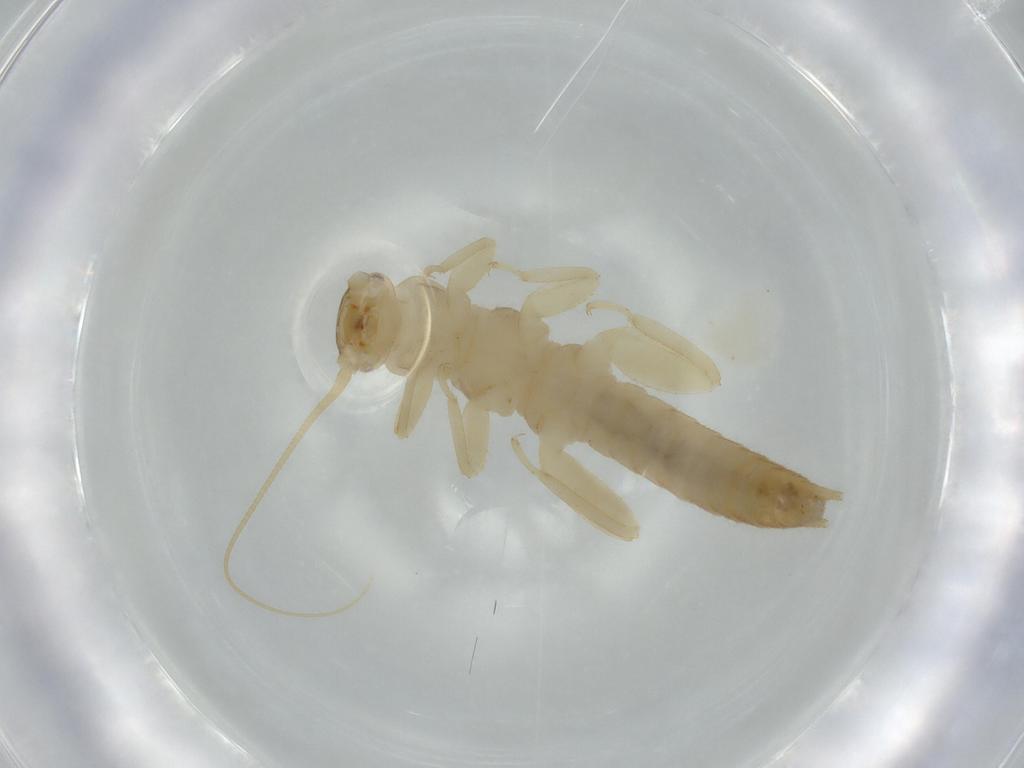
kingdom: Animalia
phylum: Arthropoda
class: Insecta
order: Plecoptera
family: Leuctridae
